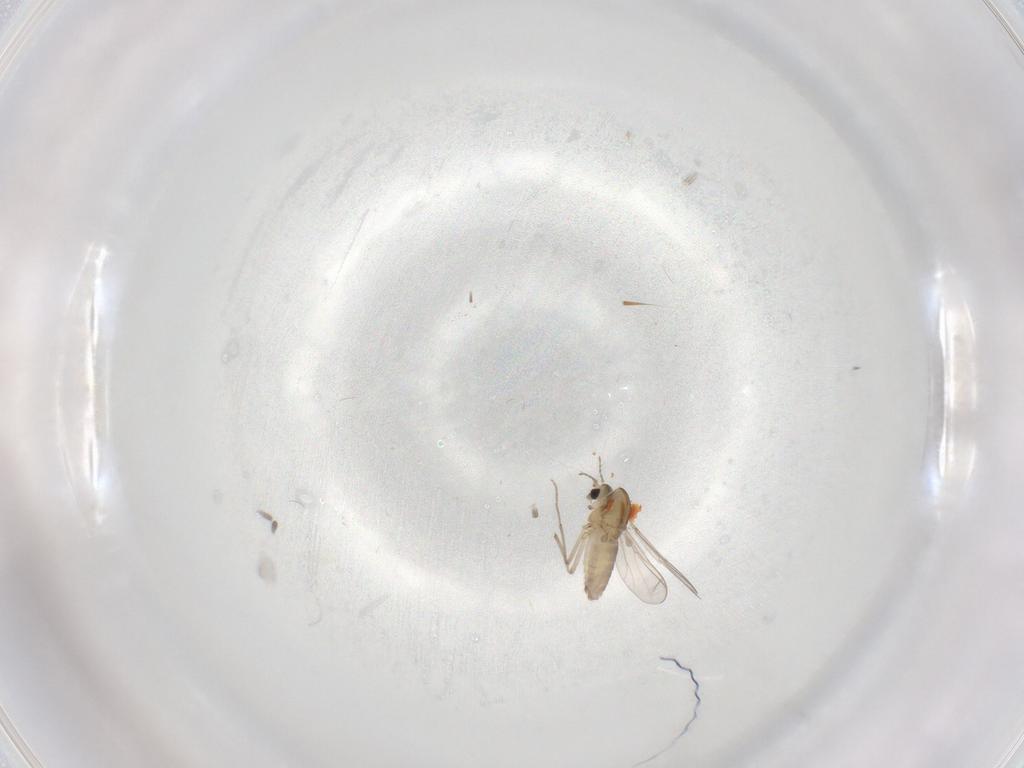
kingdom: Animalia
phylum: Arthropoda
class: Insecta
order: Diptera
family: Chironomidae
